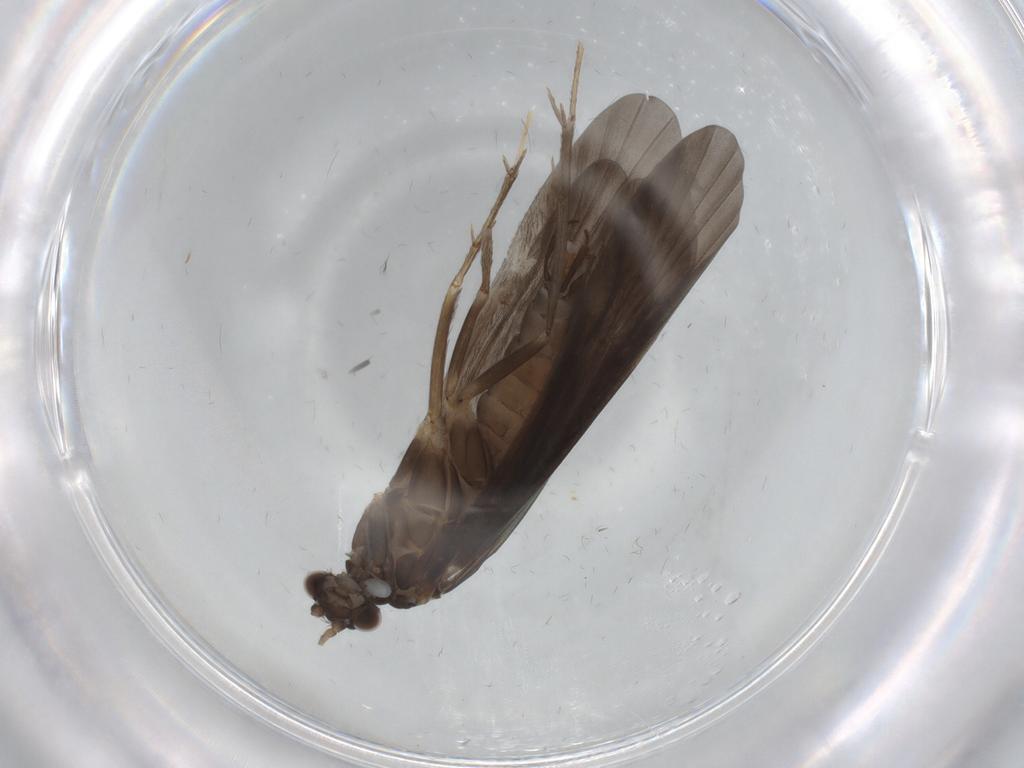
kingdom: Animalia
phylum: Arthropoda
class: Insecta
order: Trichoptera
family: Hydropsychidae
